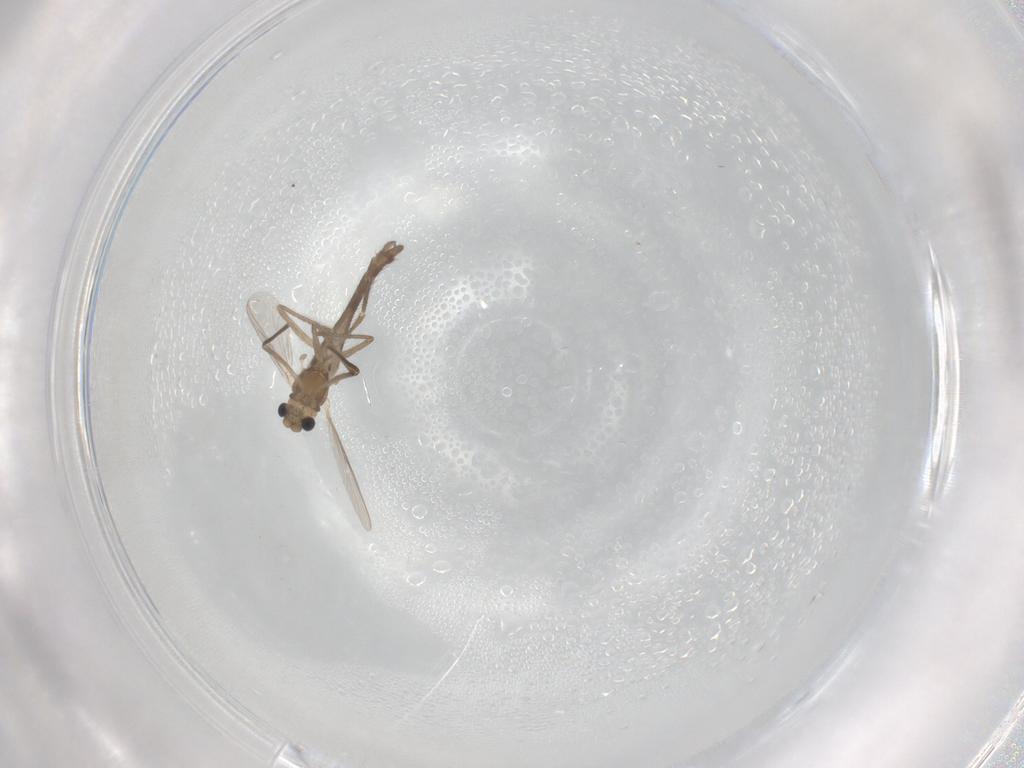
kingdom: Animalia
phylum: Arthropoda
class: Insecta
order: Diptera
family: Chironomidae
